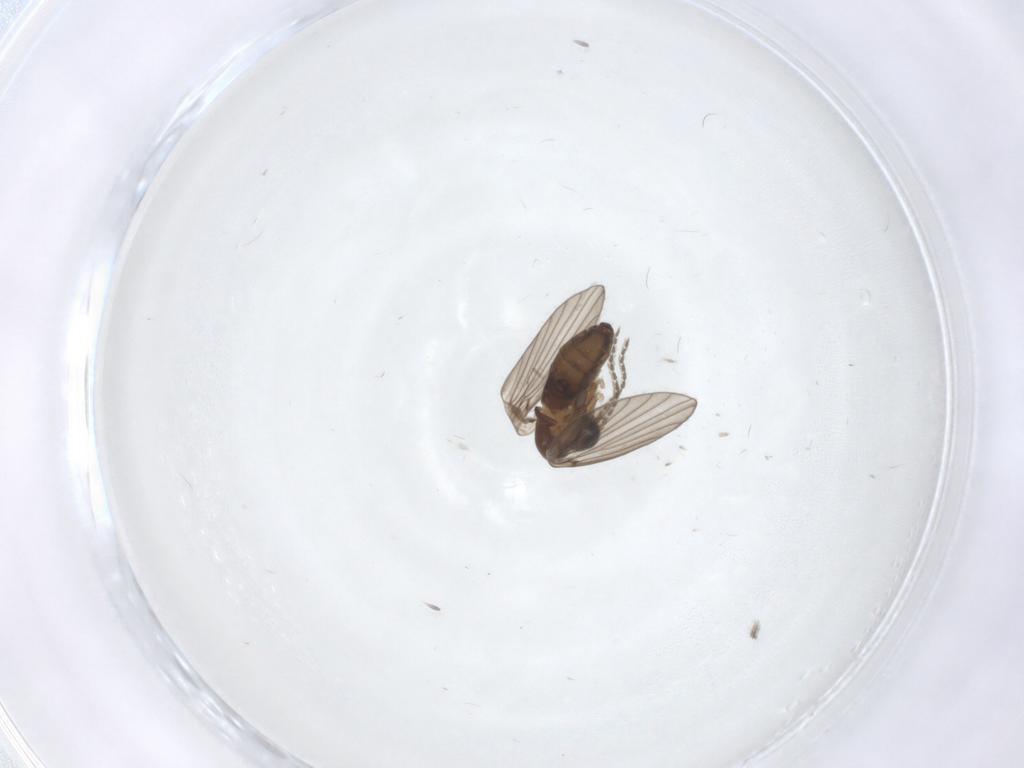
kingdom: Animalia
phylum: Arthropoda
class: Insecta
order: Diptera
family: Psychodidae
